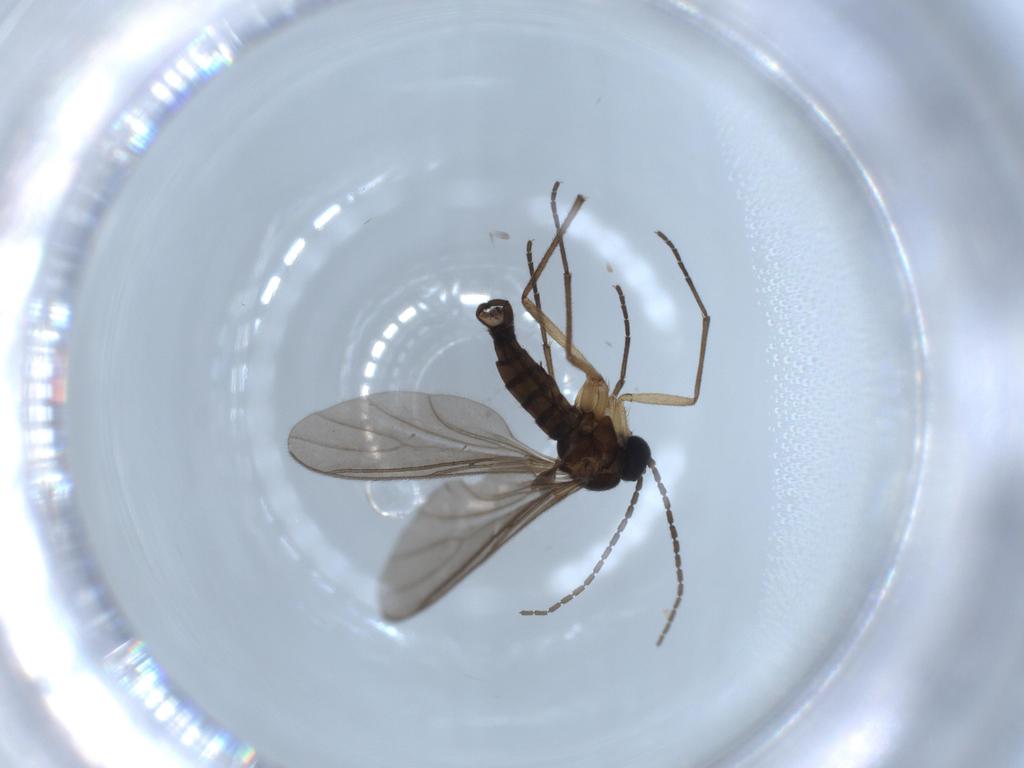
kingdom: Animalia
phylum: Arthropoda
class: Insecta
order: Diptera
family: Sciaridae
